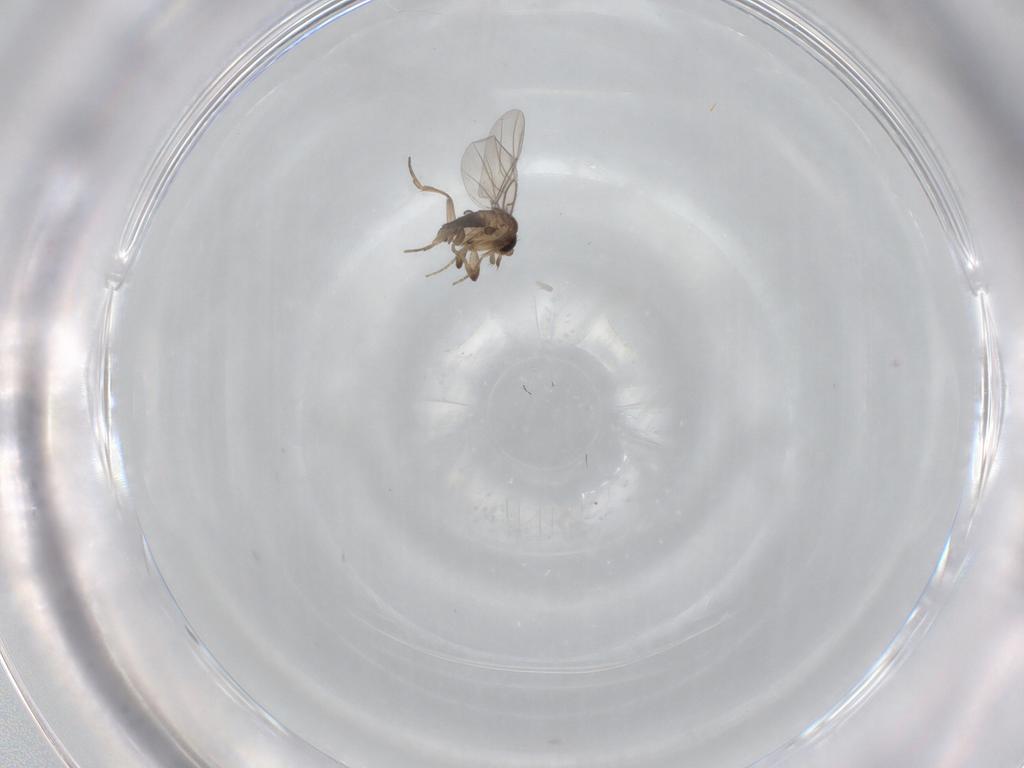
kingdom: Animalia
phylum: Arthropoda
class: Insecta
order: Diptera
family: Phoridae
